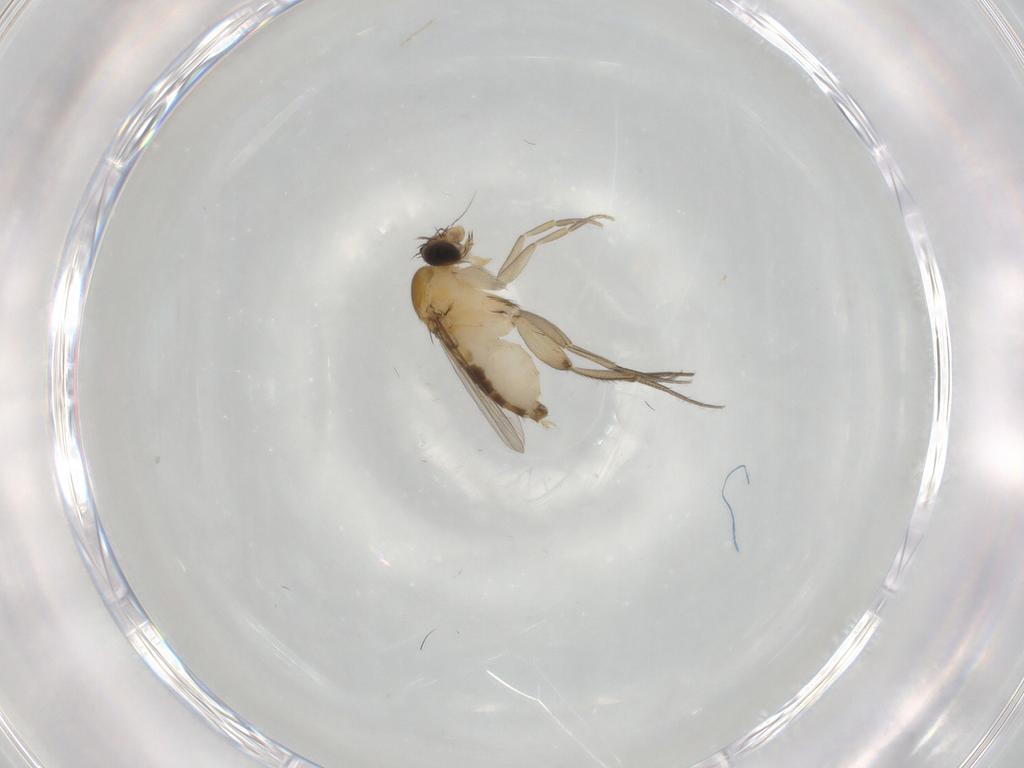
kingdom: Animalia
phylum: Arthropoda
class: Insecta
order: Diptera
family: Phoridae
